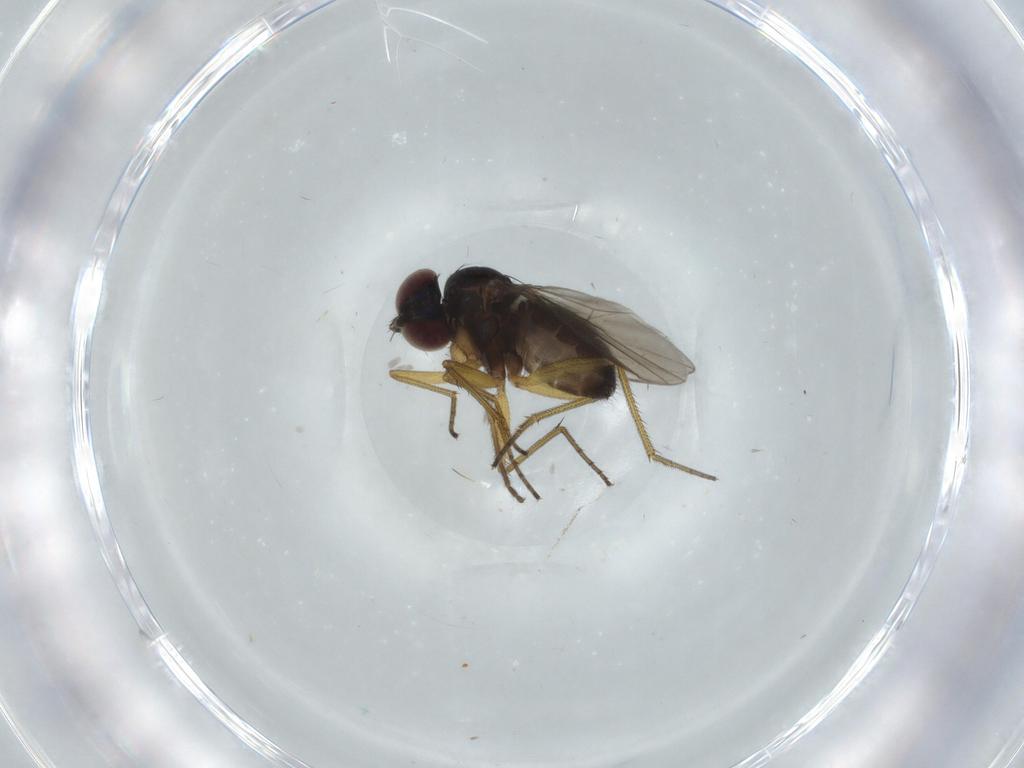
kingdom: Animalia
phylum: Arthropoda
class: Insecta
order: Diptera
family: Dolichopodidae
